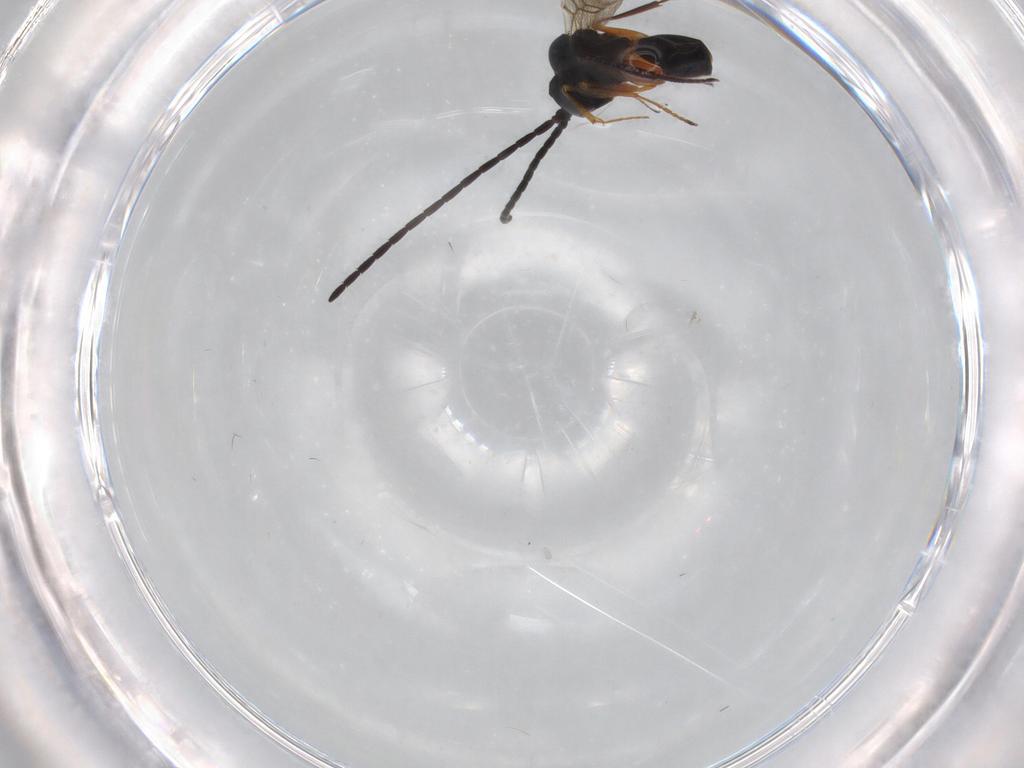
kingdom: Animalia
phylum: Arthropoda
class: Insecta
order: Hymenoptera
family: Figitidae
